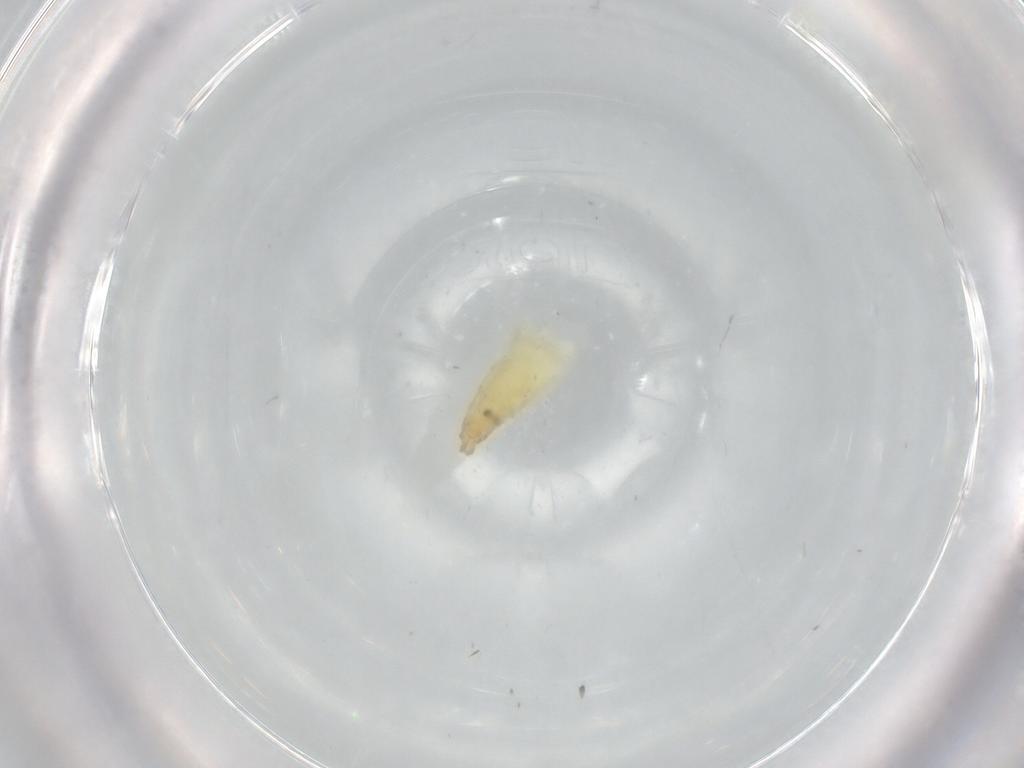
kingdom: Animalia
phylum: Arthropoda
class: Insecta
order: Diptera
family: Chironomidae
